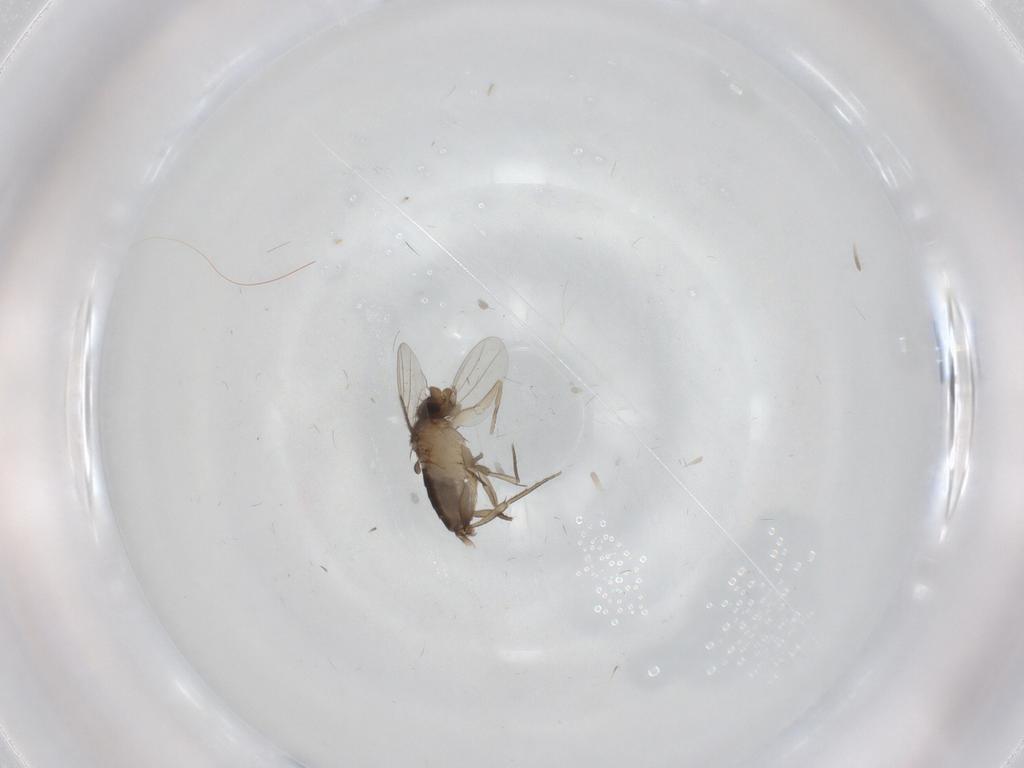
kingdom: Animalia
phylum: Arthropoda
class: Insecta
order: Diptera
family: Phoridae
